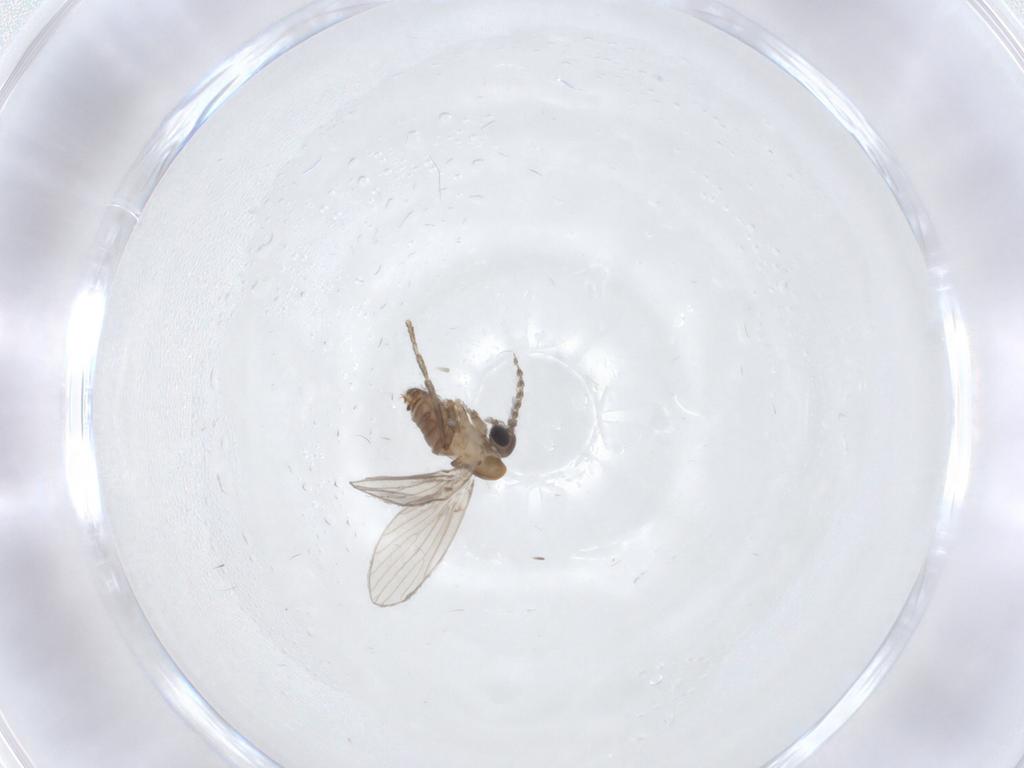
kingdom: Animalia
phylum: Arthropoda
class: Insecta
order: Diptera
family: Psychodidae
